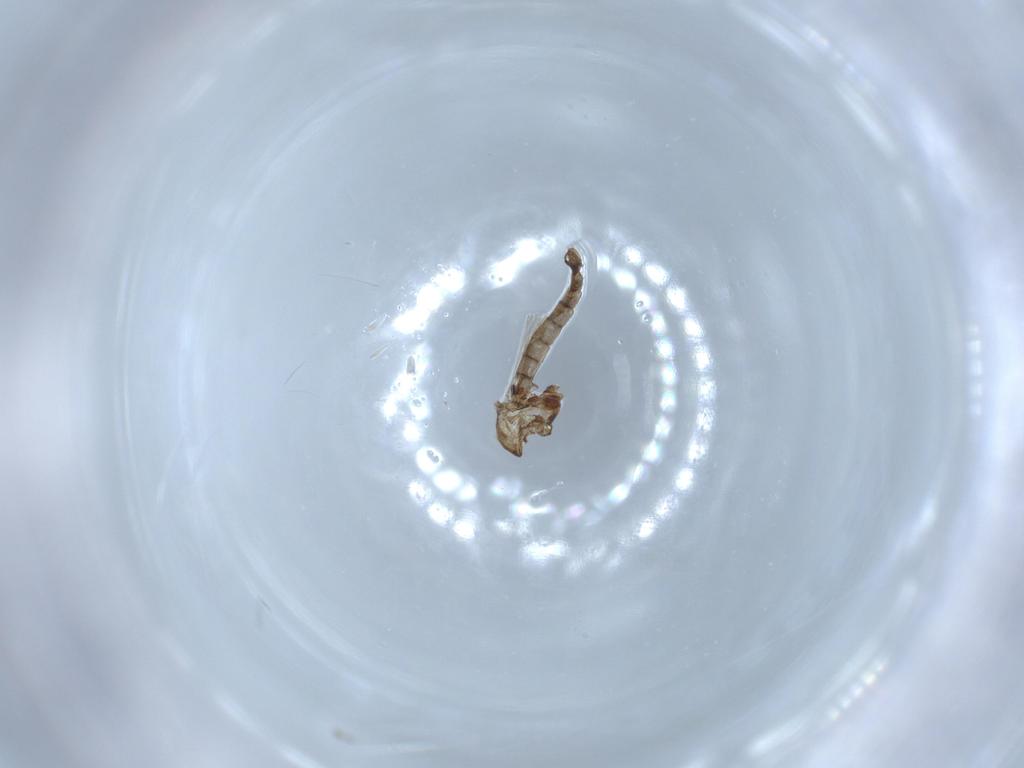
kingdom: Animalia
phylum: Arthropoda
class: Insecta
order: Diptera
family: Chironomidae
